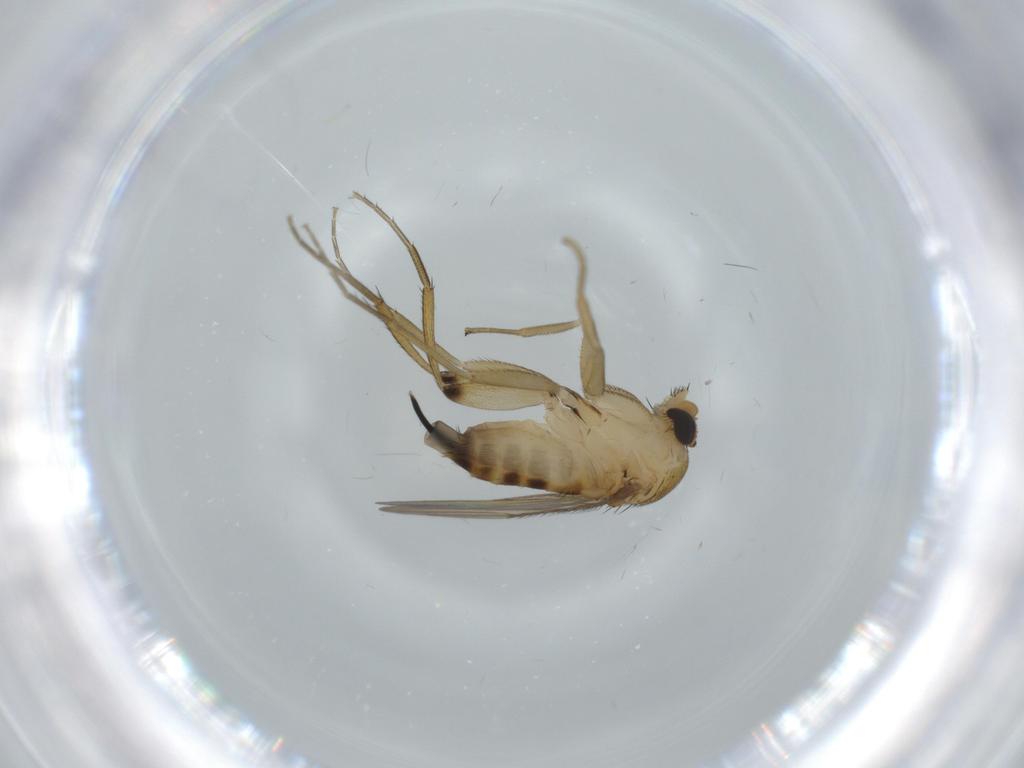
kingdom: Animalia
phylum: Arthropoda
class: Insecta
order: Diptera
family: Phoridae
